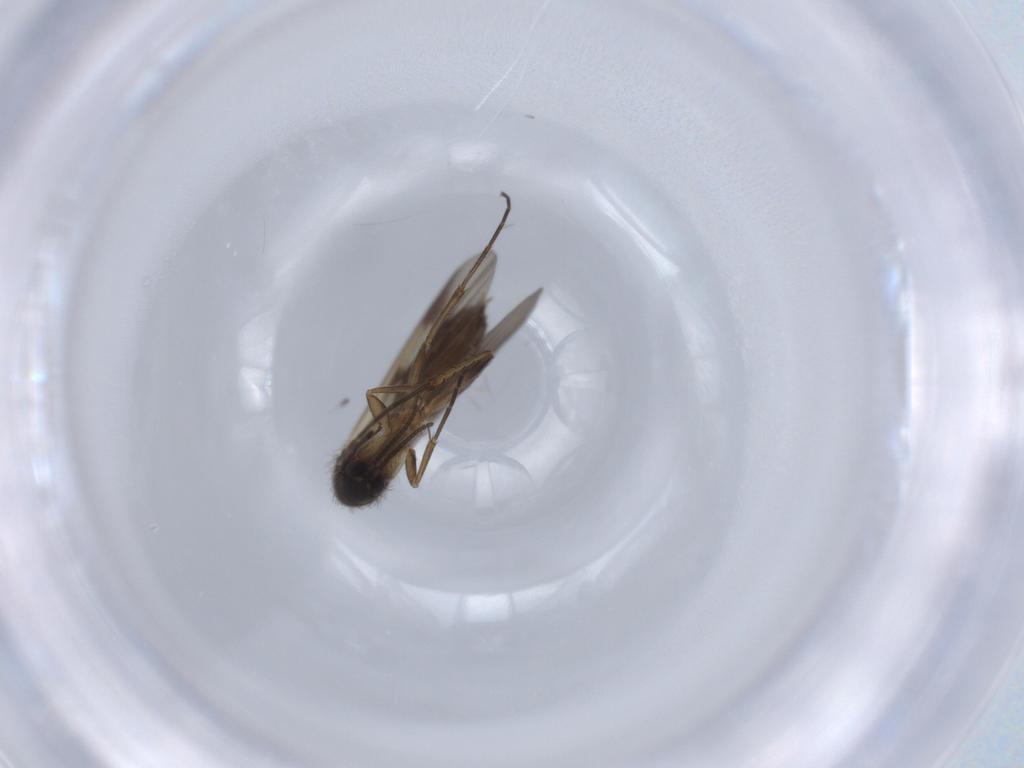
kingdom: Animalia
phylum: Arthropoda
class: Insecta
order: Diptera
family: Mycetophilidae
